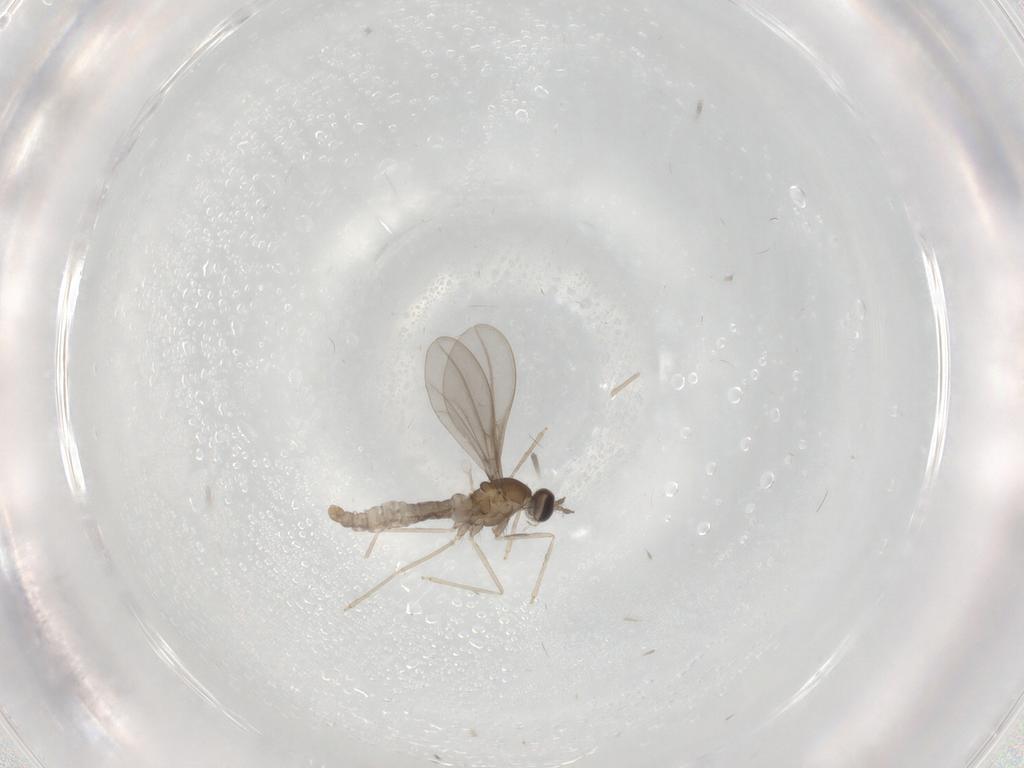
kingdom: Animalia
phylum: Arthropoda
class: Insecta
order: Diptera
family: Cecidomyiidae
